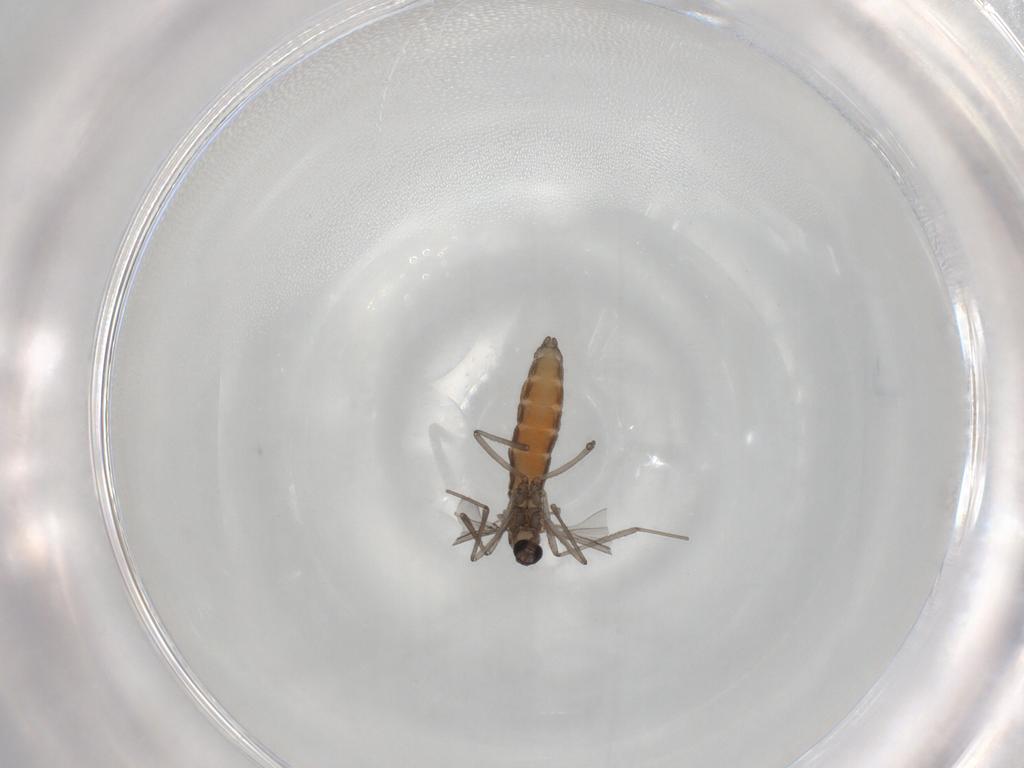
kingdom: Animalia
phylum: Arthropoda
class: Insecta
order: Diptera
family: Cecidomyiidae
